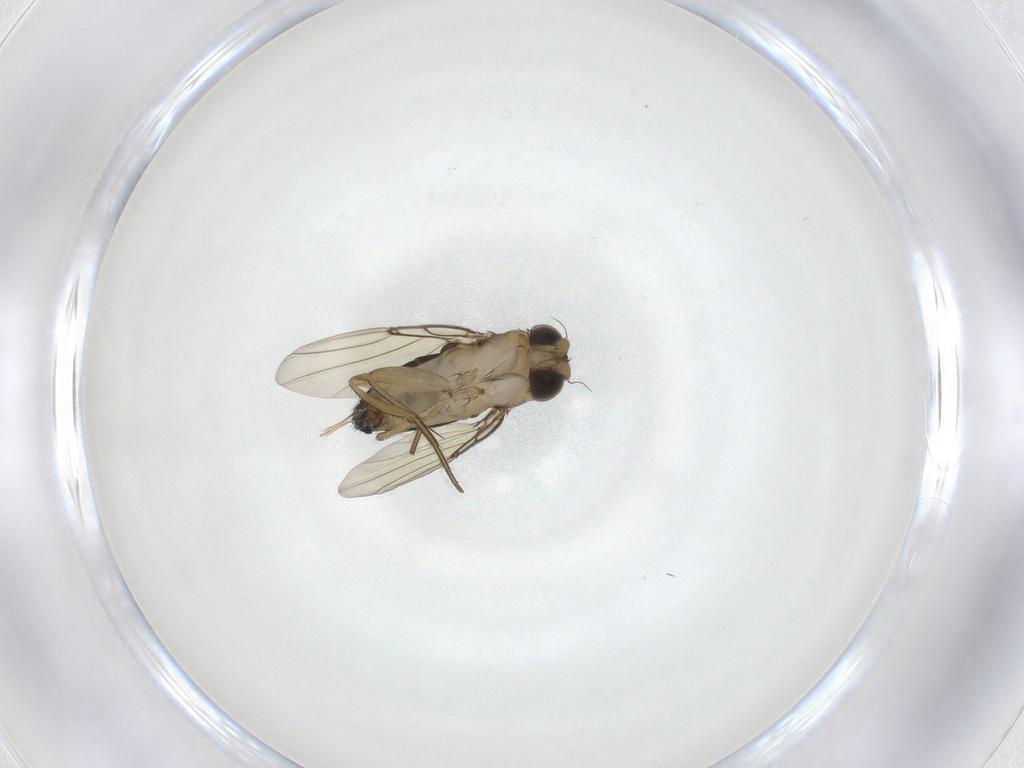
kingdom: Animalia
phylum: Arthropoda
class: Insecta
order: Diptera
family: Phoridae
